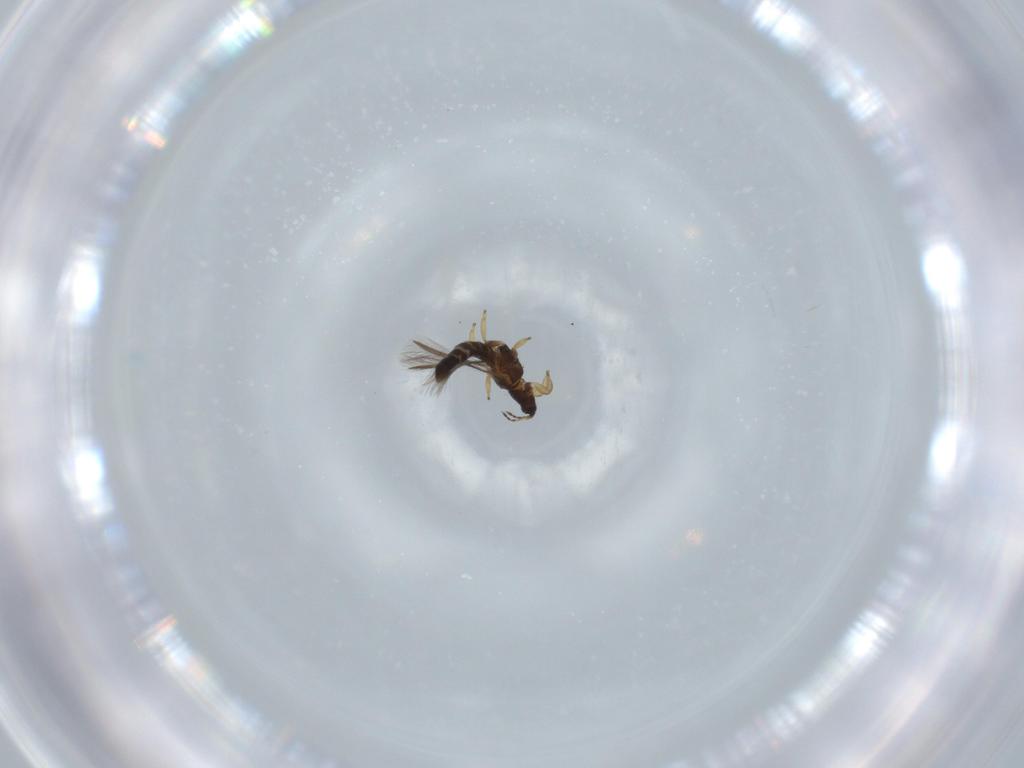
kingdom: Animalia
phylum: Arthropoda
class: Insecta
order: Thysanoptera
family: Thripidae
